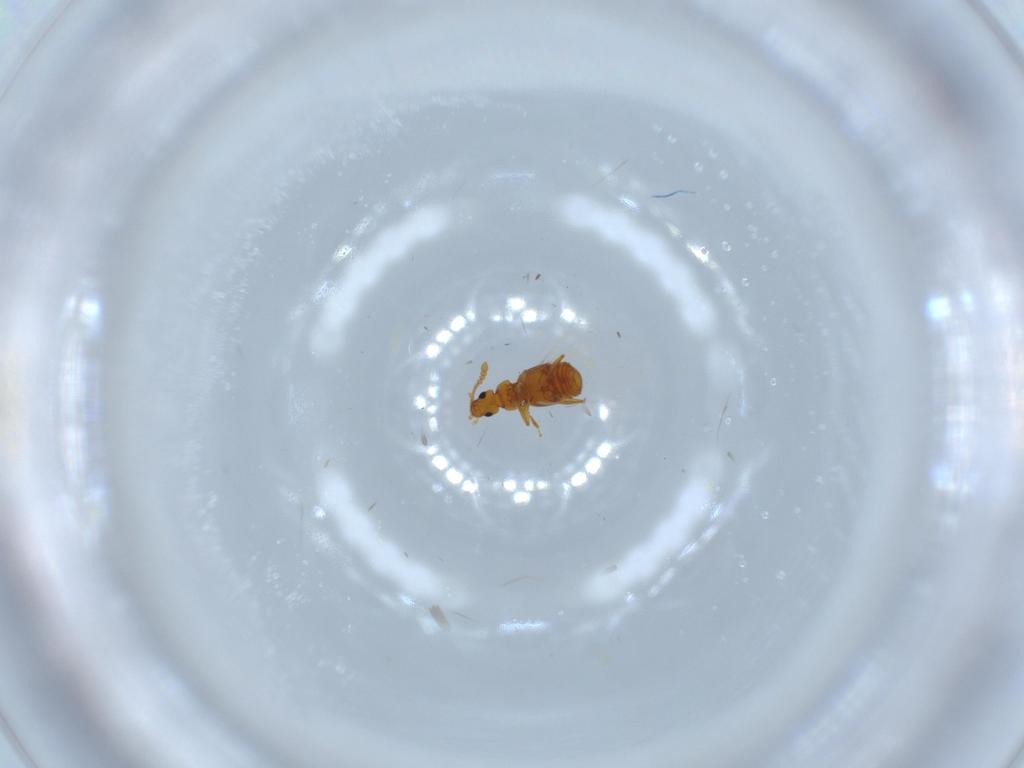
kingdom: Animalia
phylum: Arthropoda
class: Insecta
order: Coleoptera
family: Staphylinidae
